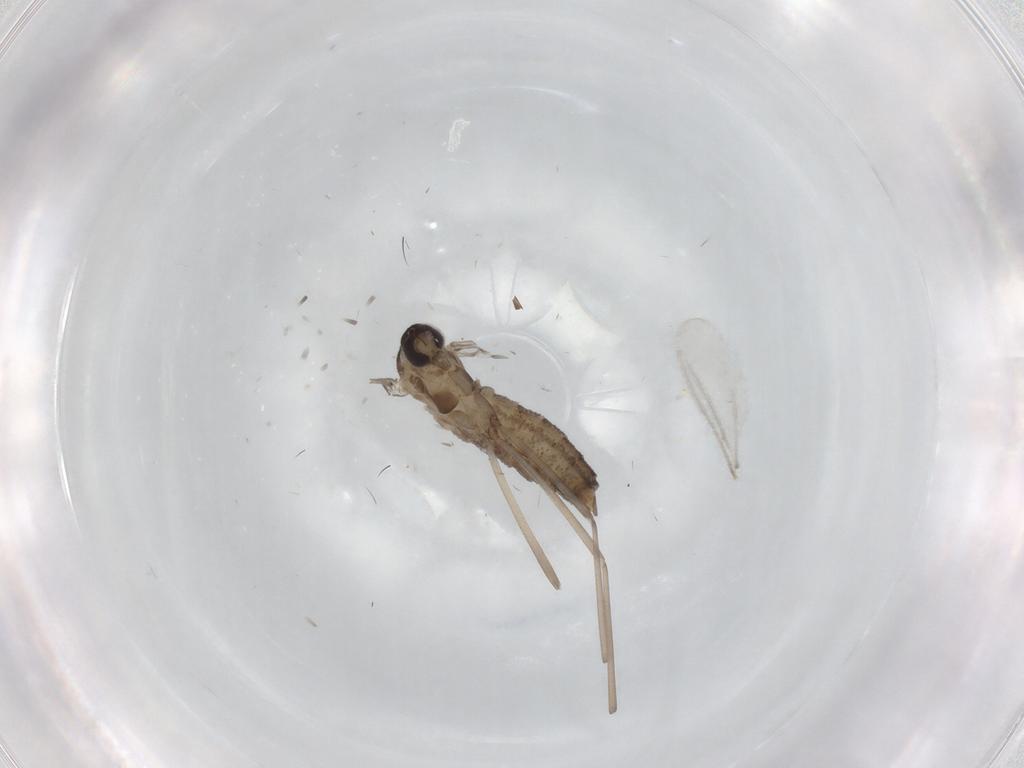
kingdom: Animalia
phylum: Arthropoda
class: Insecta
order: Diptera
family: Cecidomyiidae
